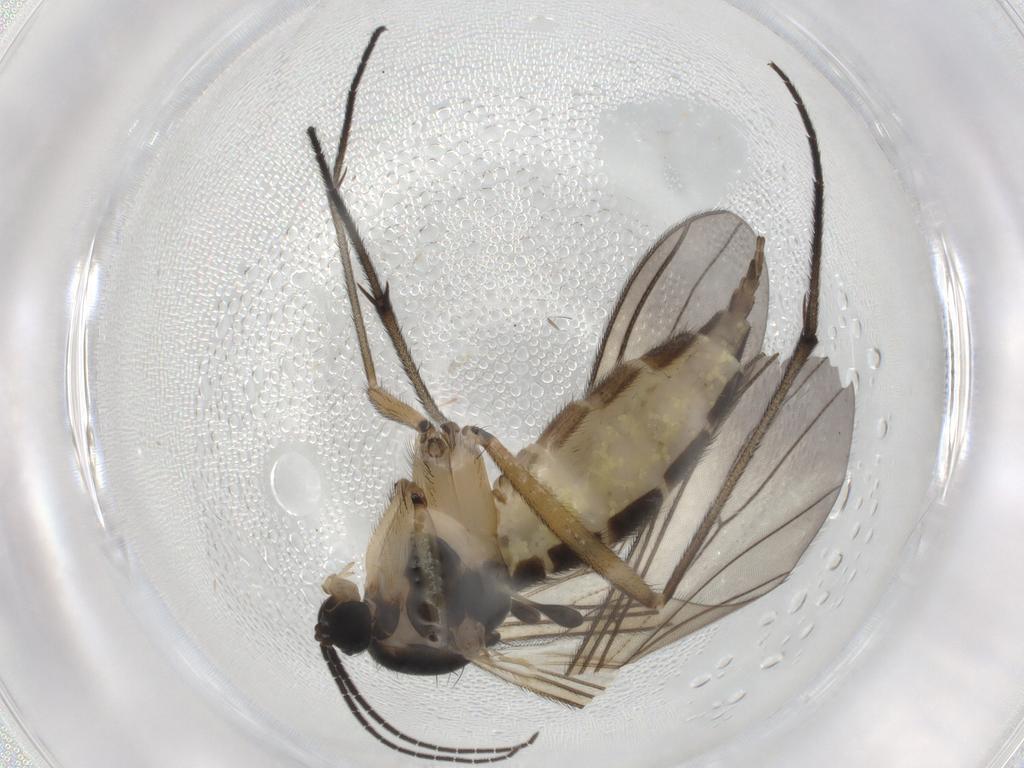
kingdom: Animalia
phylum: Arthropoda
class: Insecta
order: Diptera
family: Sciaridae
